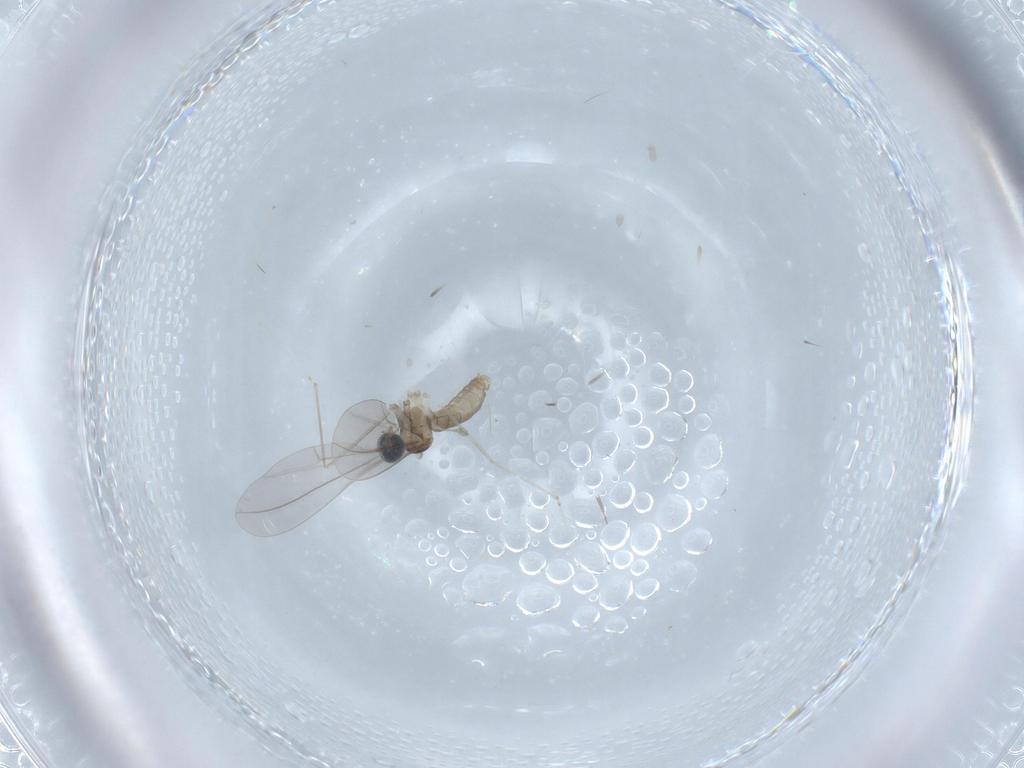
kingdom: Animalia
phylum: Arthropoda
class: Insecta
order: Diptera
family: Cecidomyiidae
